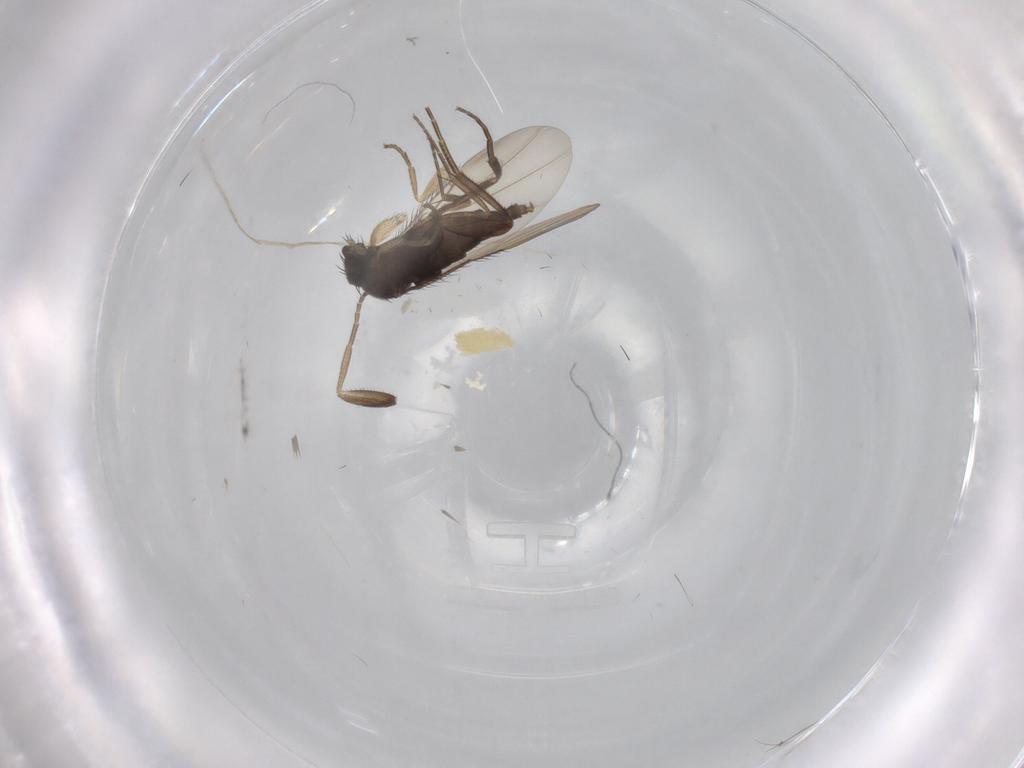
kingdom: Animalia
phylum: Arthropoda
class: Insecta
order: Diptera
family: Phoridae
